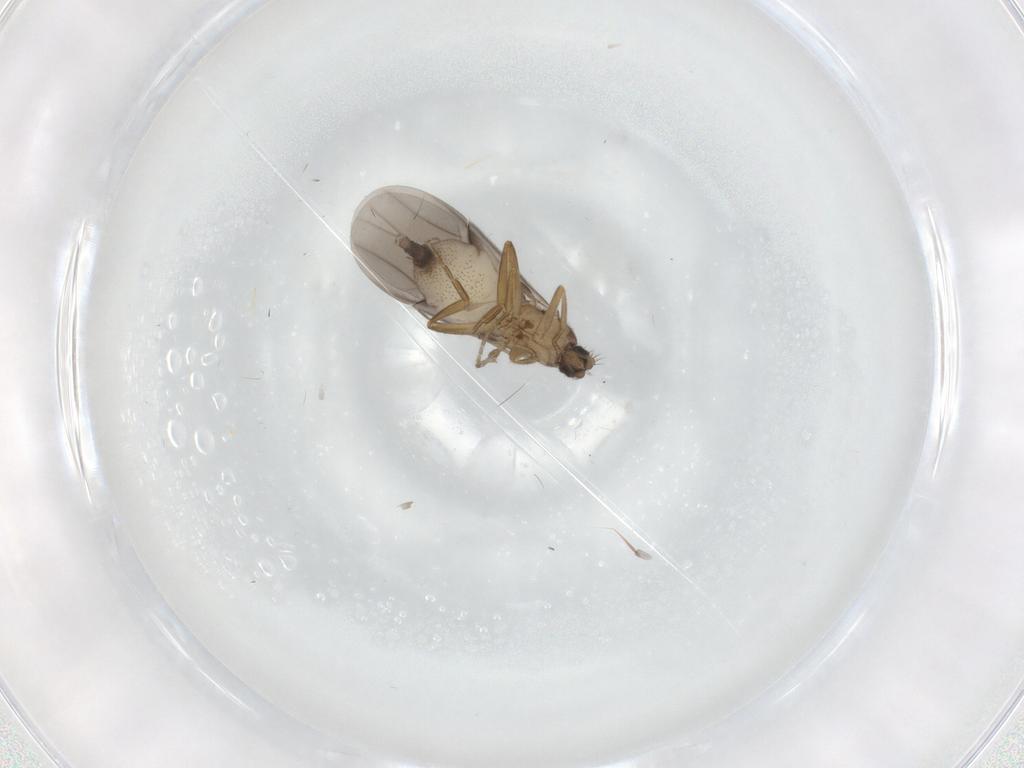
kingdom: Animalia
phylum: Arthropoda
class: Insecta
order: Diptera
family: Phoridae
